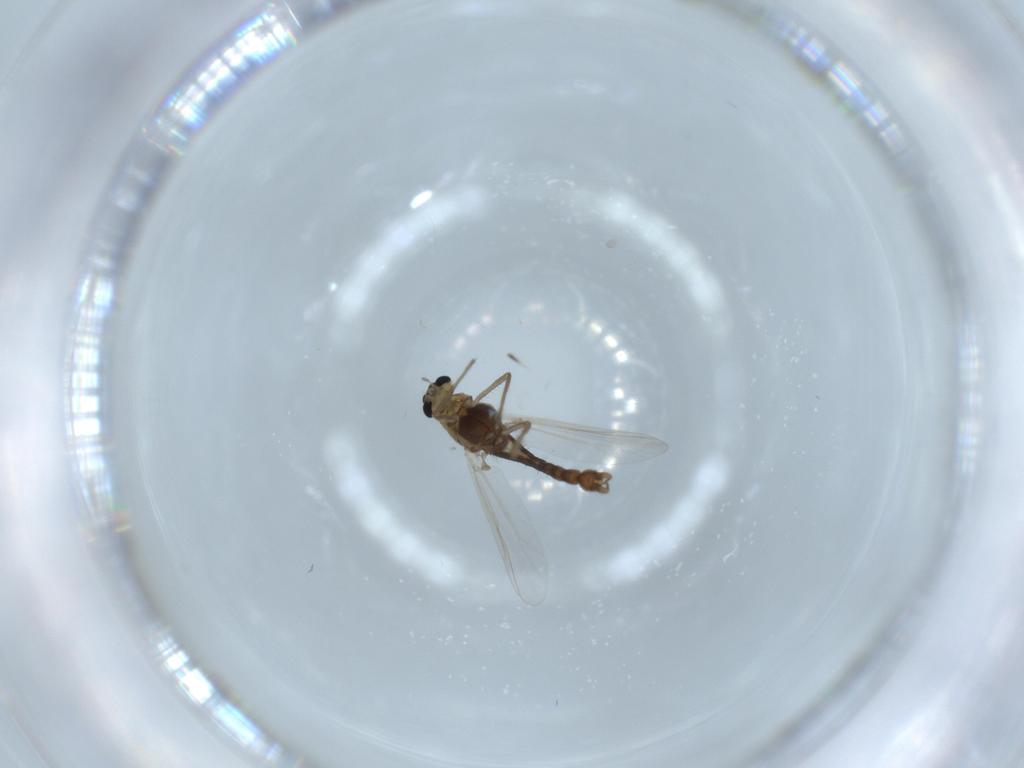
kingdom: Animalia
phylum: Arthropoda
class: Insecta
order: Diptera
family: Chironomidae
